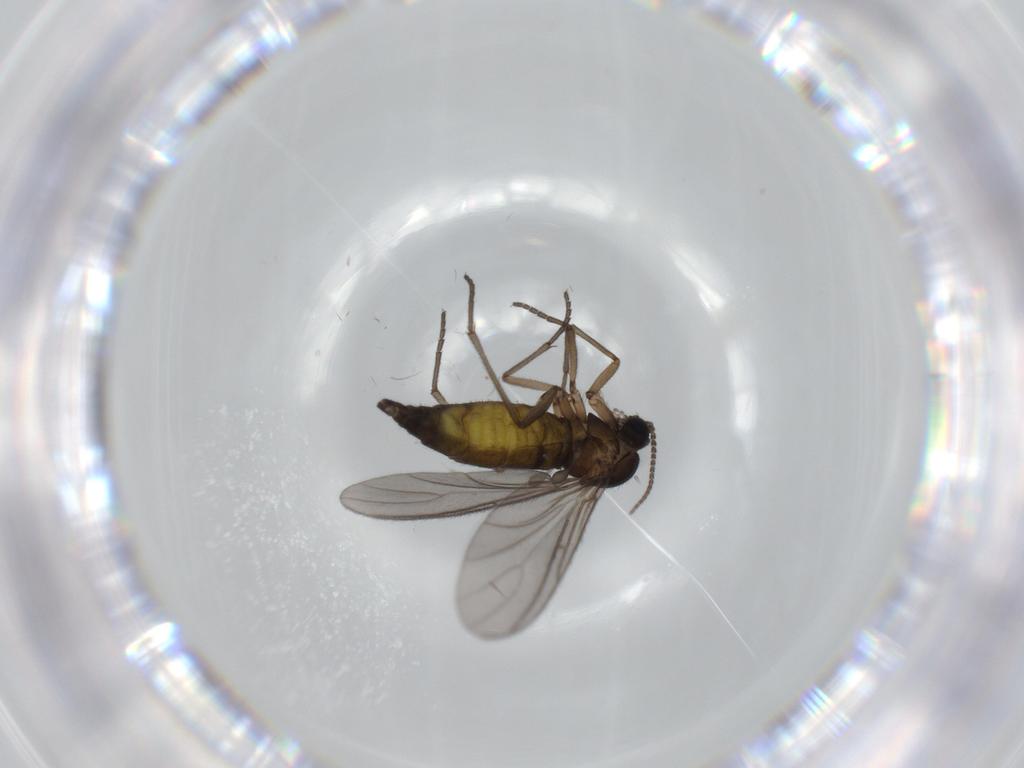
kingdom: Animalia
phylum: Arthropoda
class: Insecta
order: Diptera
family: Sciaridae
